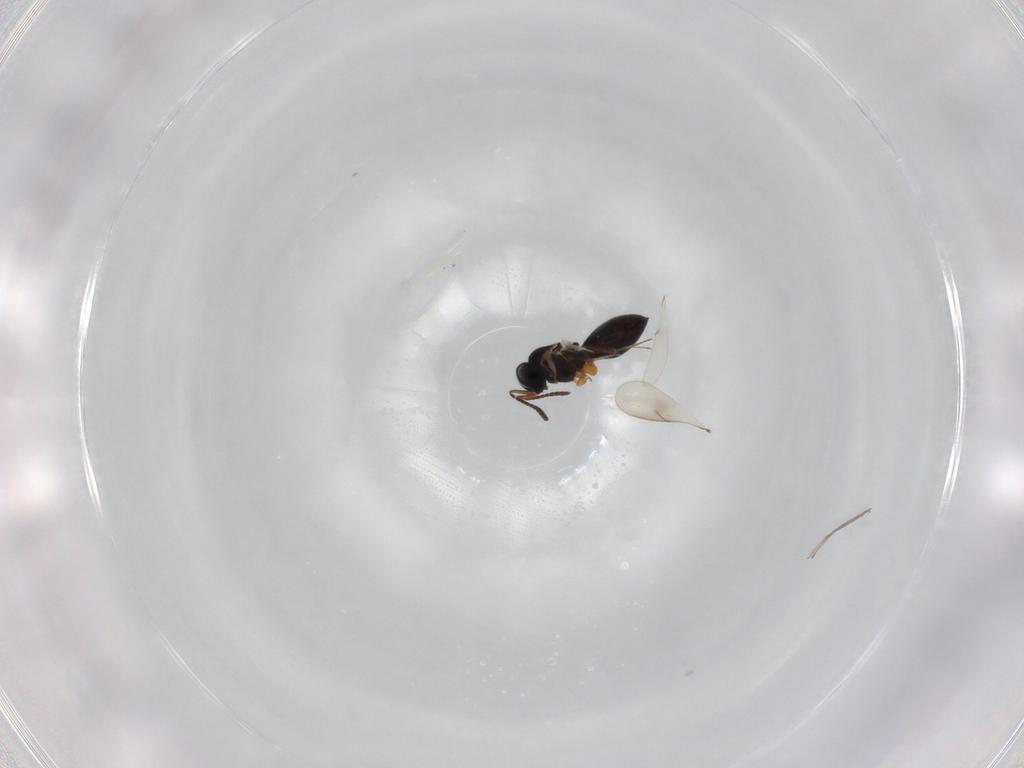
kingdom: Animalia
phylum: Arthropoda
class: Insecta
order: Hymenoptera
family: Scelionidae
